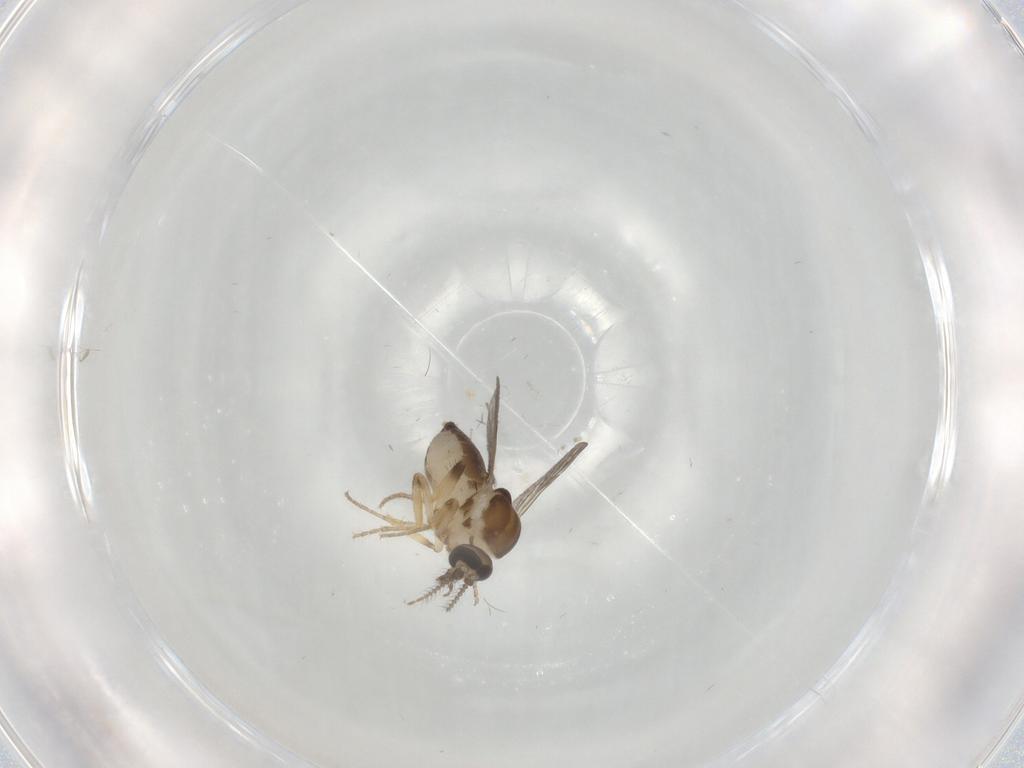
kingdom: Animalia
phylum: Arthropoda
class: Insecta
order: Diptera
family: Ceratopogonidae
